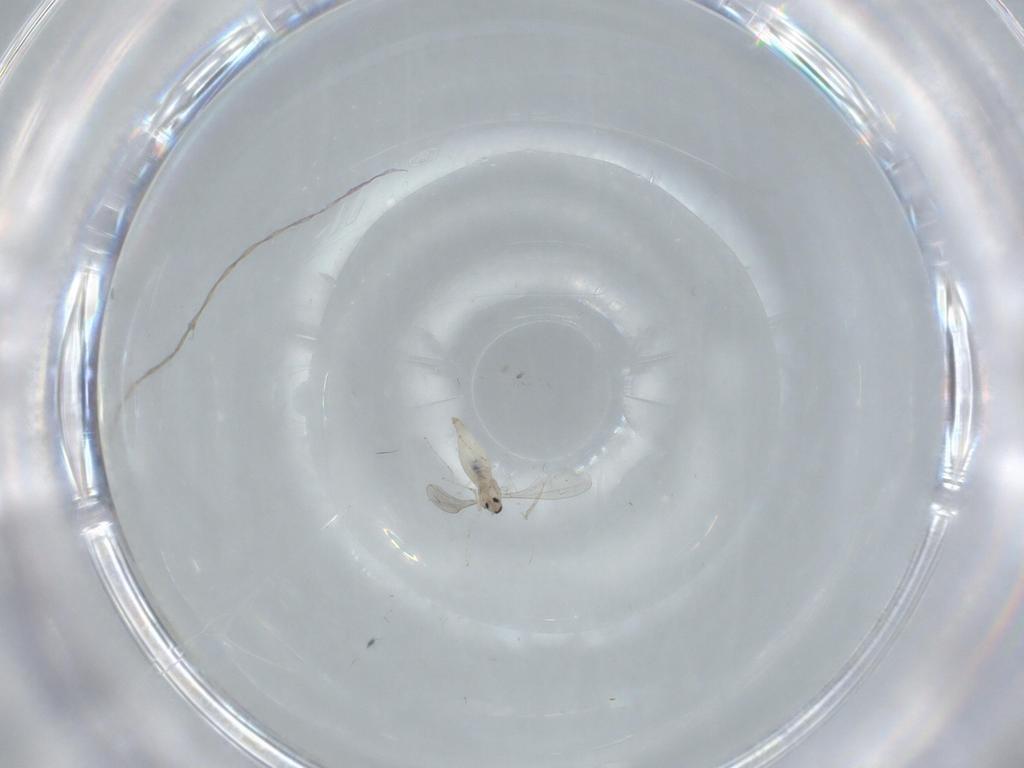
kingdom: Animalia
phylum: Arthropoda
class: Insecta
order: Diptera
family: Cecidomyiidae
